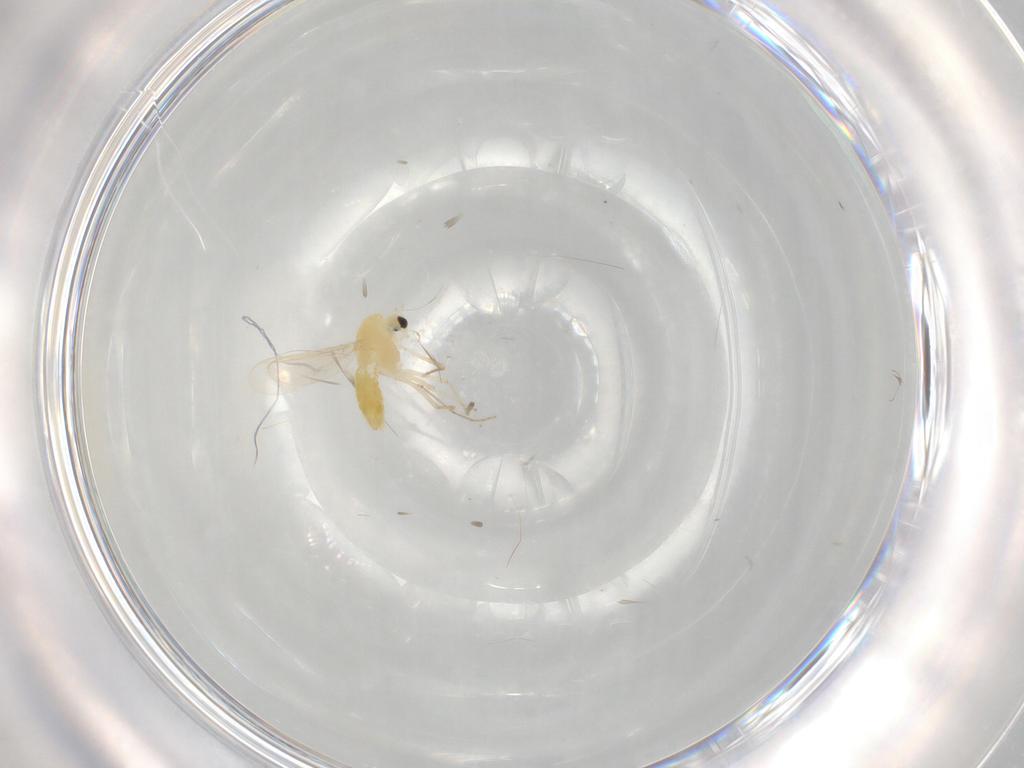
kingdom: Animalia
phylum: Arthropoda
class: Insecta
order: Diptera
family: Chironomidae
